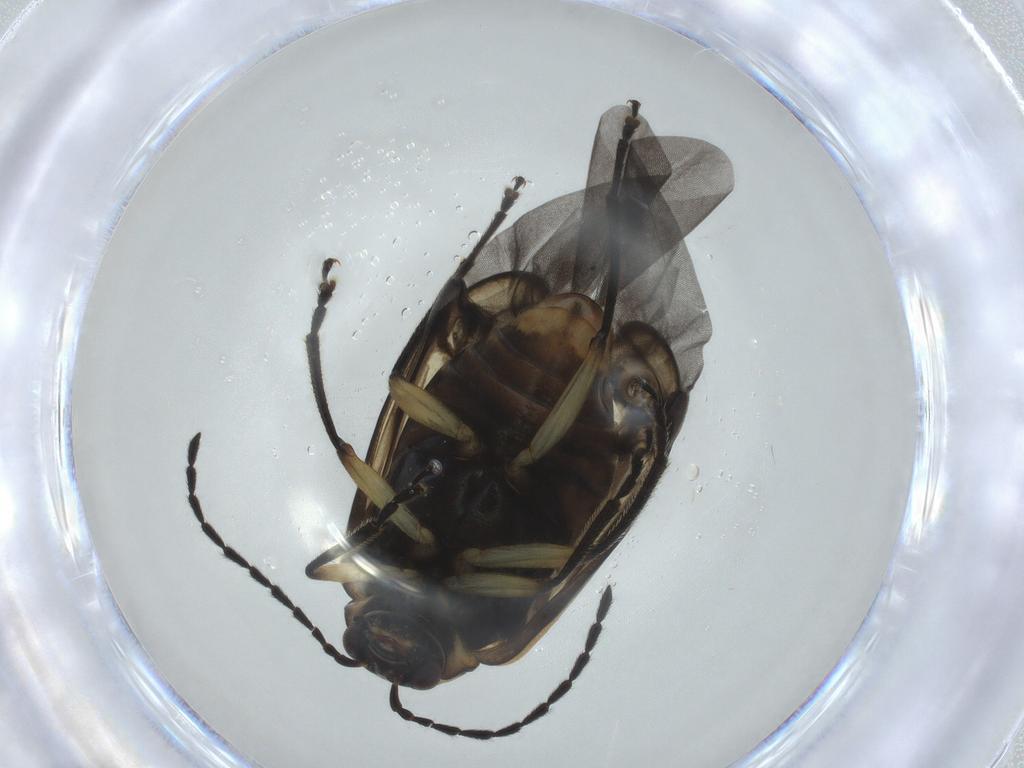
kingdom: Animalia
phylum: Arthropoda
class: Insecta
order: Coleoptera
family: Chrysomelidae
